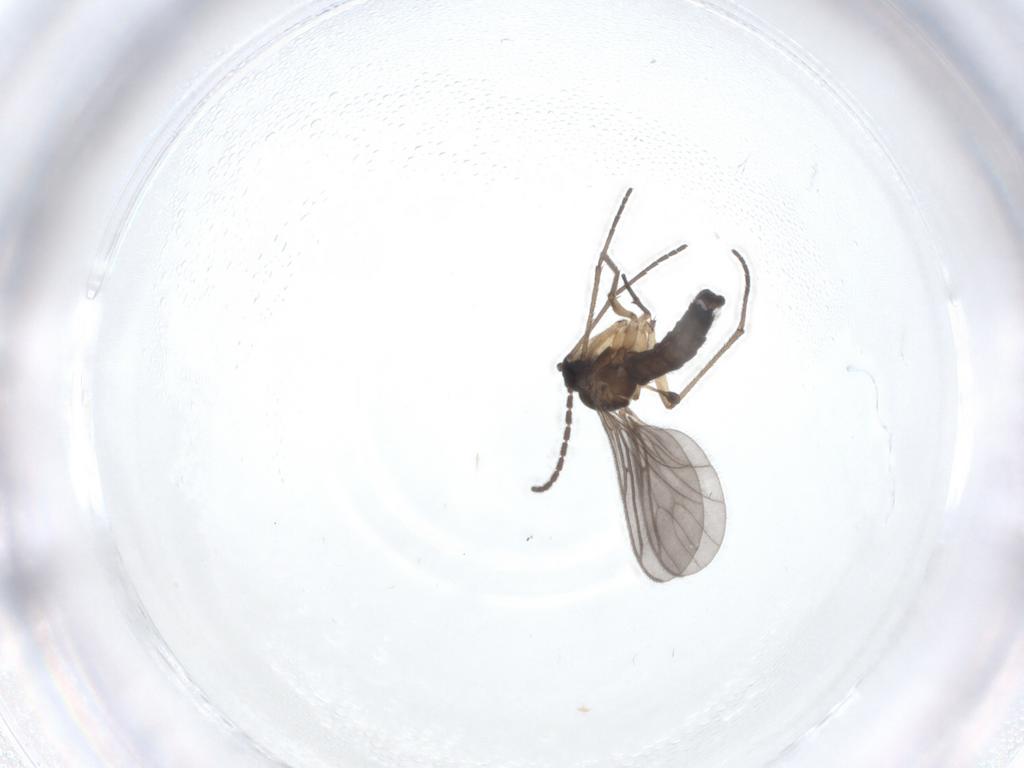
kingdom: Animalia
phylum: Arthropoda
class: Insecta
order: Diptera
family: Sciaridae
